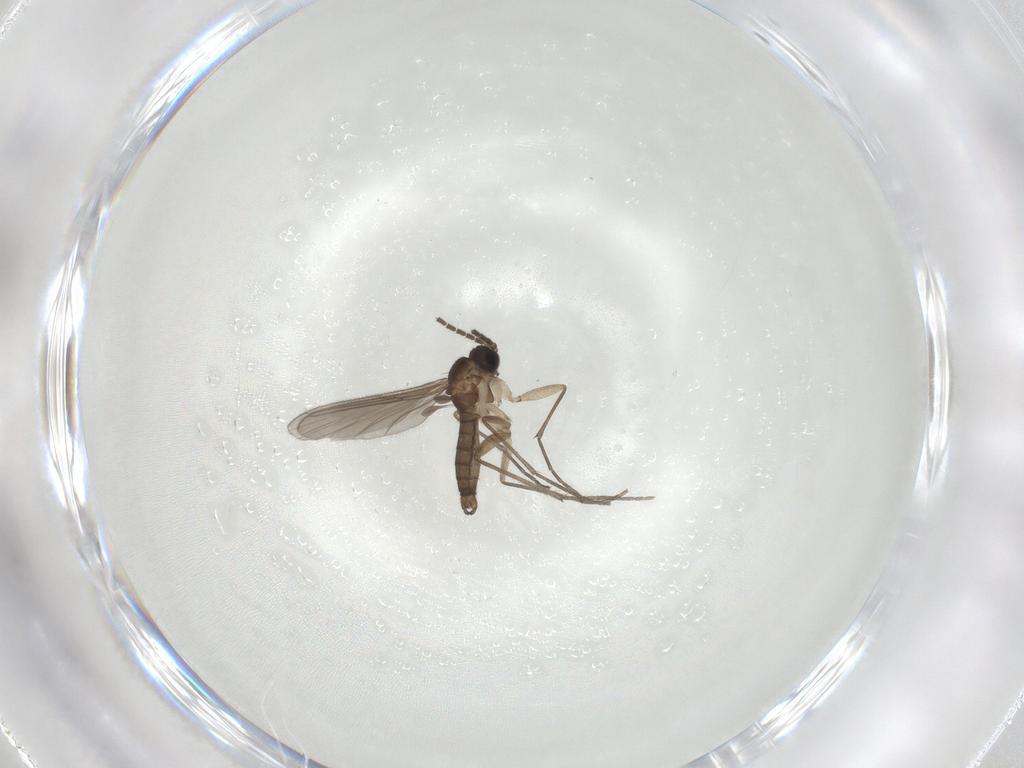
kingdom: Animalia
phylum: Arthropoda
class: Insecta
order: Diptera
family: Sciaridae
